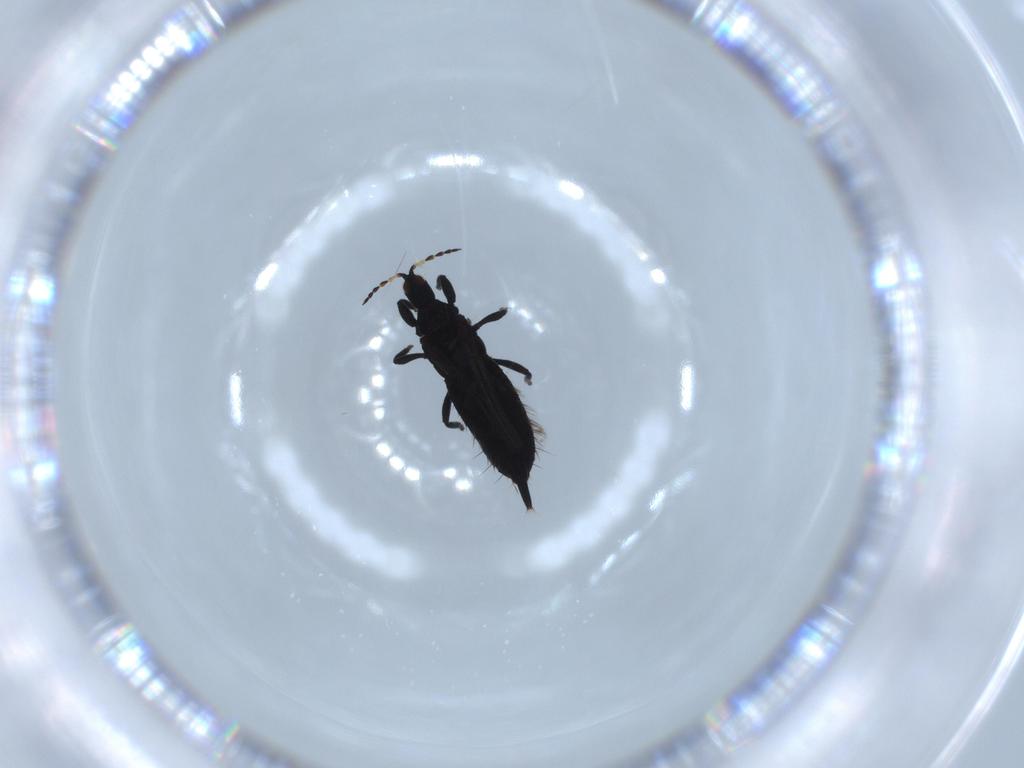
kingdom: Animalia
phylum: Arthropoda
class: Insecta
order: Thysanoptera
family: Phlaeothripidae
